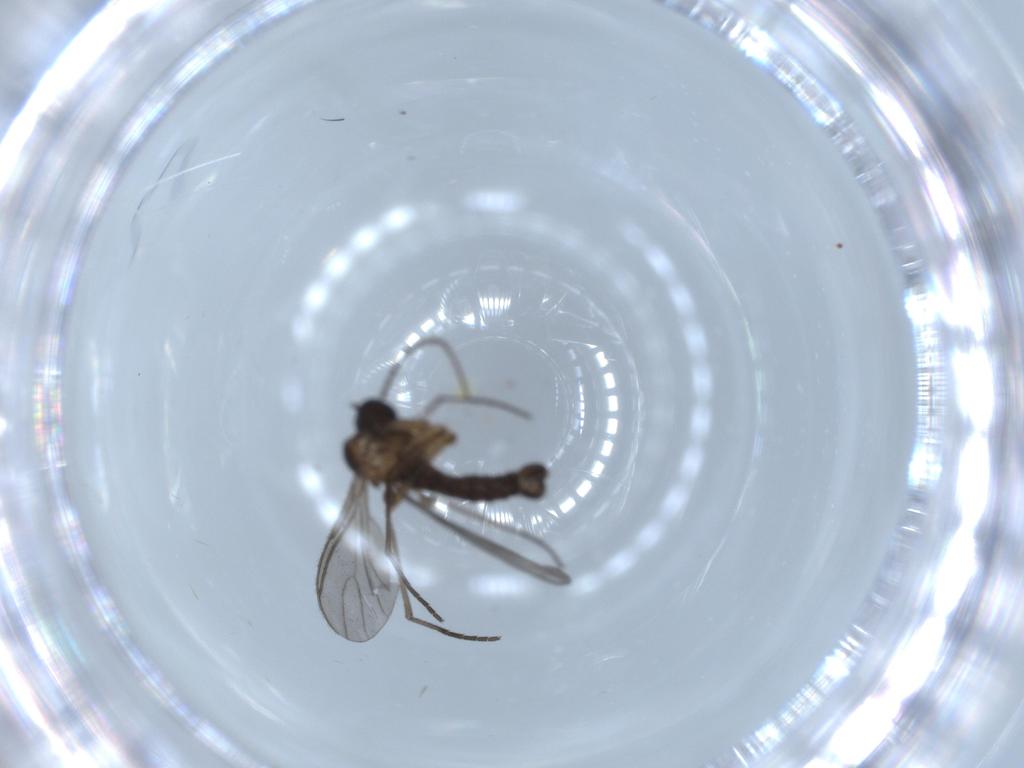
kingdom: Animalia
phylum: Arthropoda
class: Insecta
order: Diptera
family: Sciaridae
